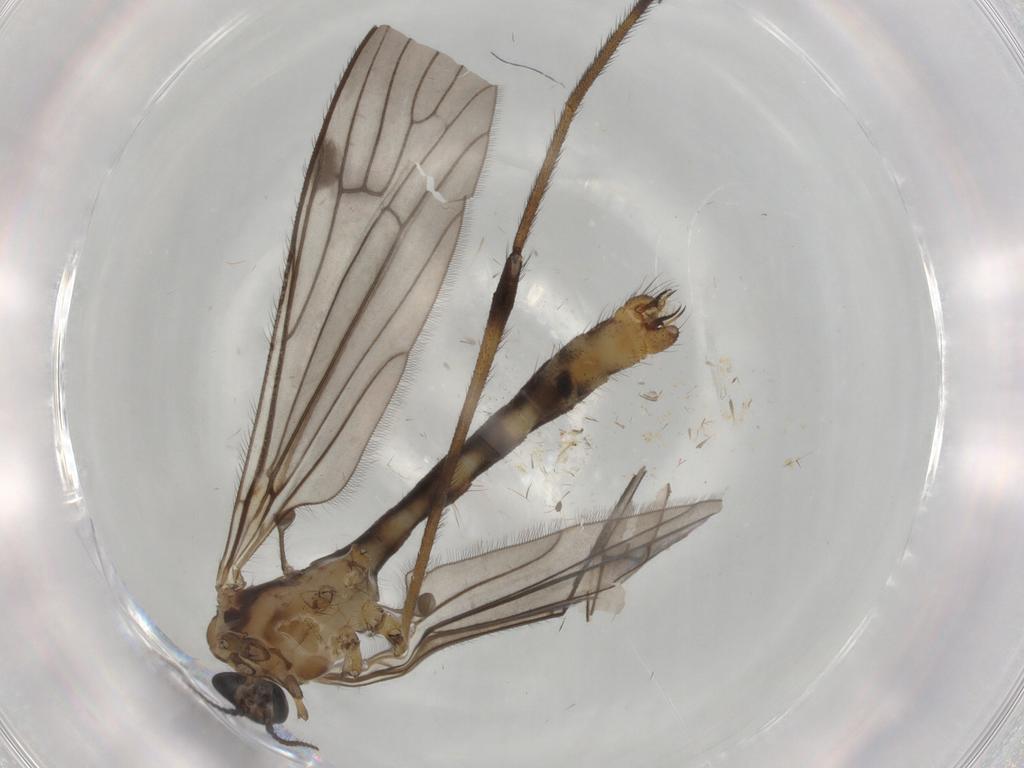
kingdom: Animalia
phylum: Arthropoda
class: Insecta
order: Diptera
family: Limoniidae
